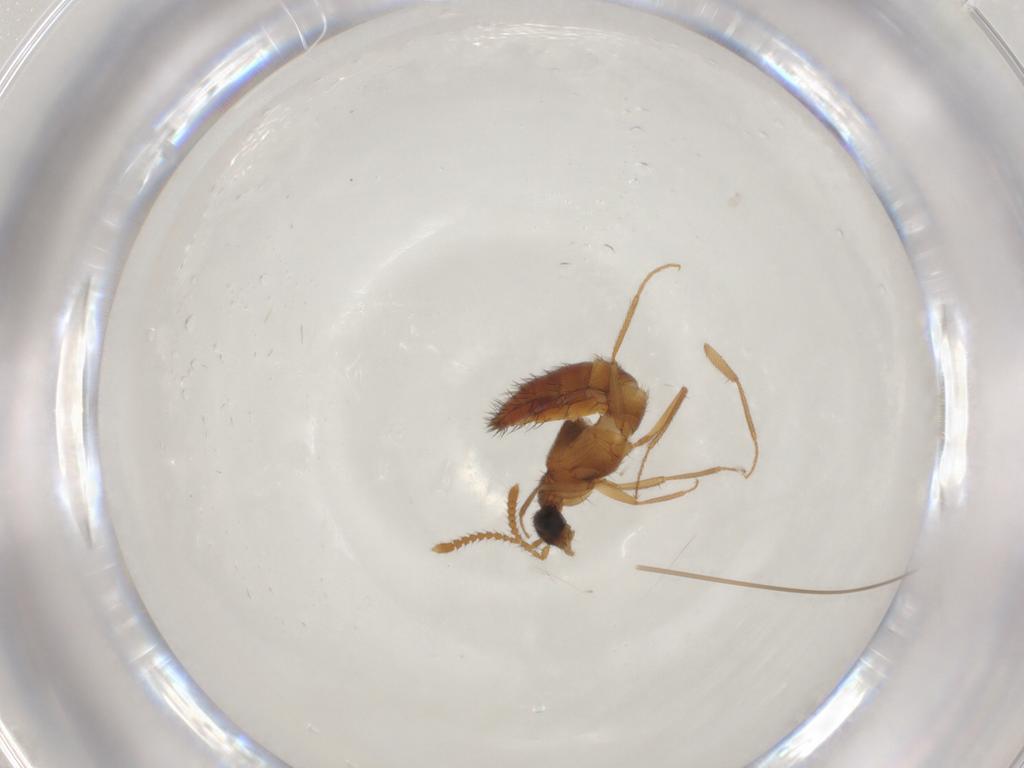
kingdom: Animalia
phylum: Arthropoda
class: Insecta
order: Coleoptera
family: Staphylinidae
